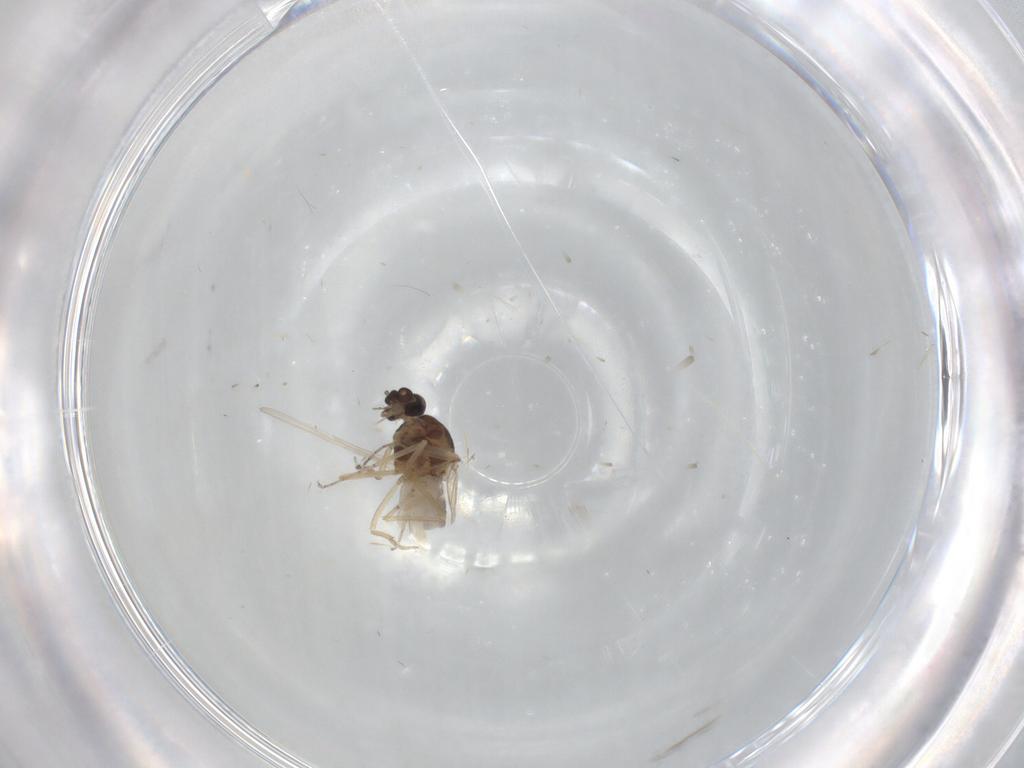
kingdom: Animalia
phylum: Arthropoda
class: Insecta
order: Diptera
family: Ceratopogonidae
